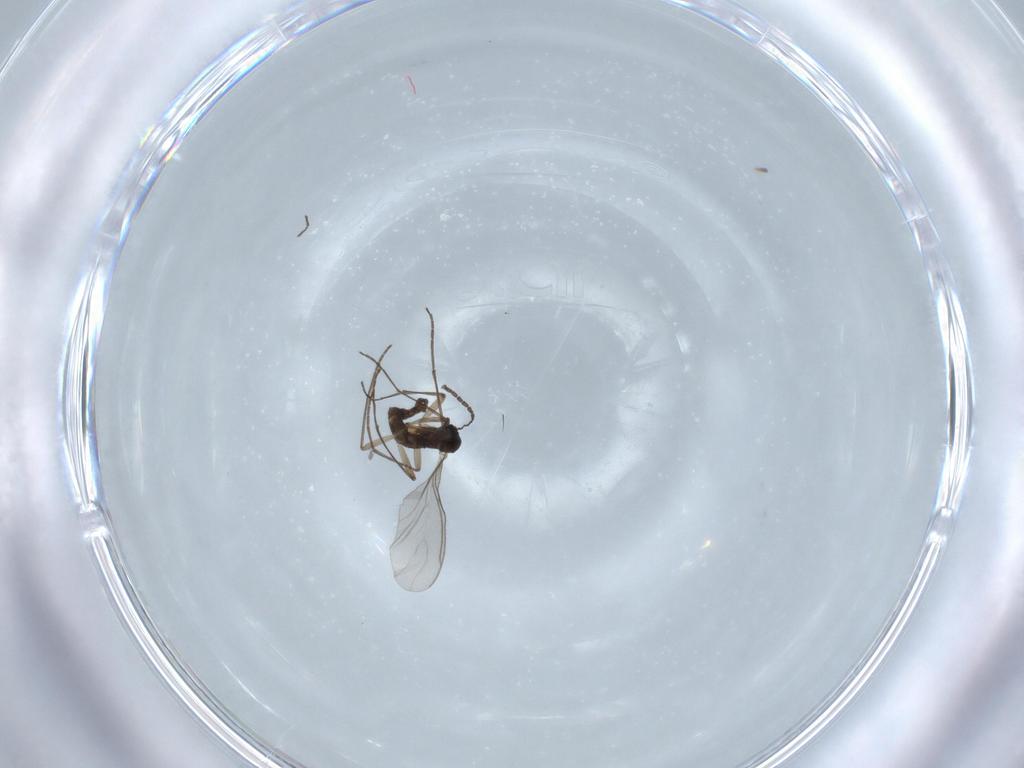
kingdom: Animalia
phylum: Arthropoda
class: Insecta
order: Diptera
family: Sciaridae
